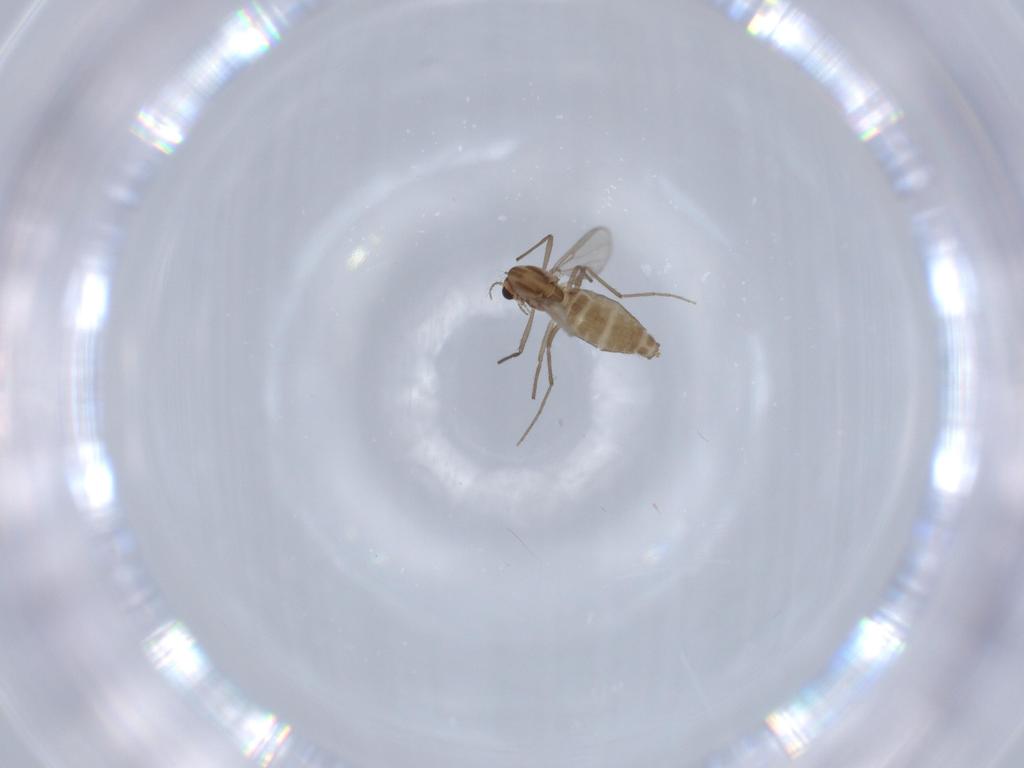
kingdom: Animalia
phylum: Arthropoda
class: Insecta
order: Diptera
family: Chironomidae
